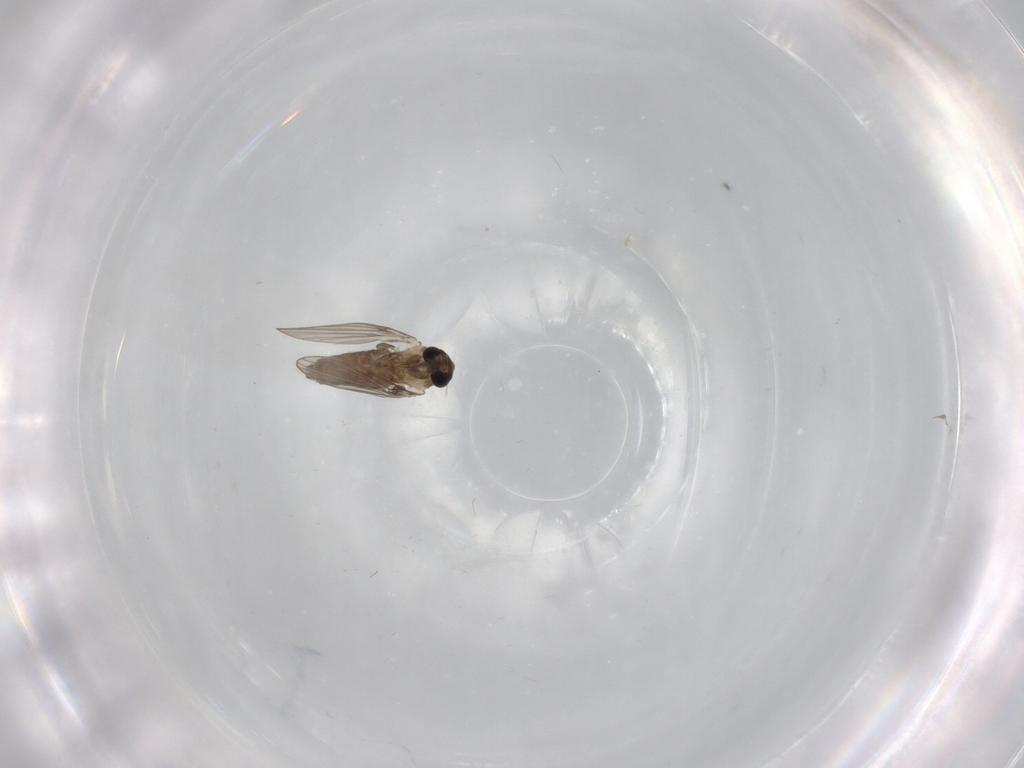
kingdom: Animalia
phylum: Arthropoda
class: Insecta
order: Diptera
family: Psychodidae
